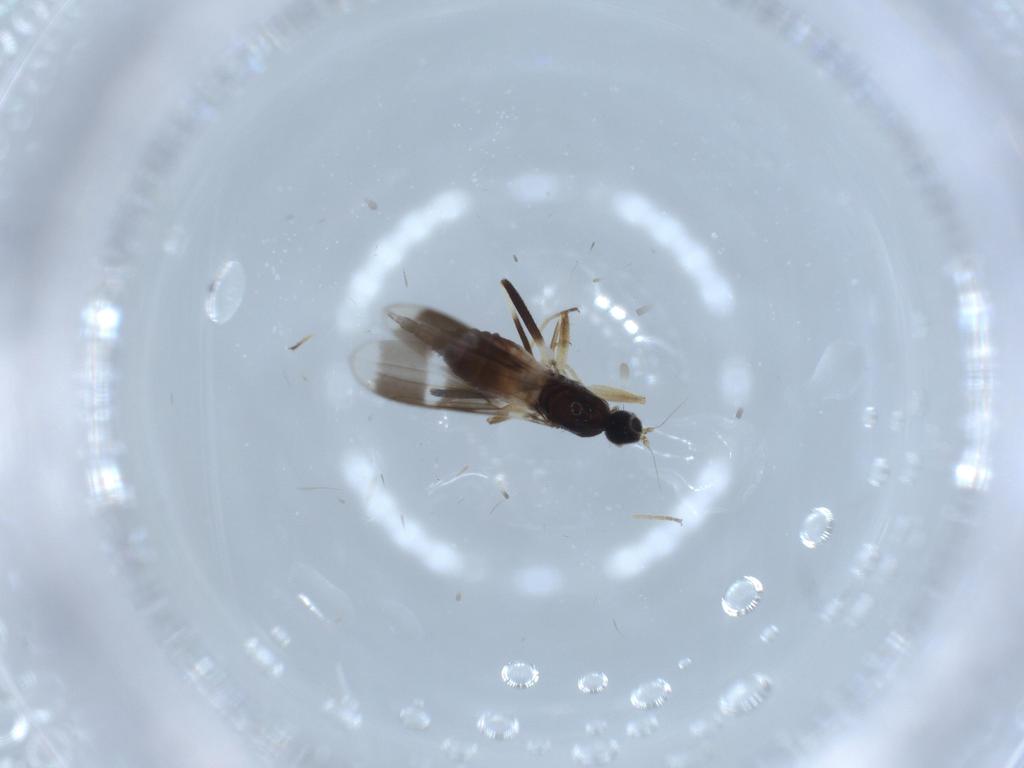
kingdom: Animalia
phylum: Arthropoda
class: Insecta
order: Diptera
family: Hybotidae
